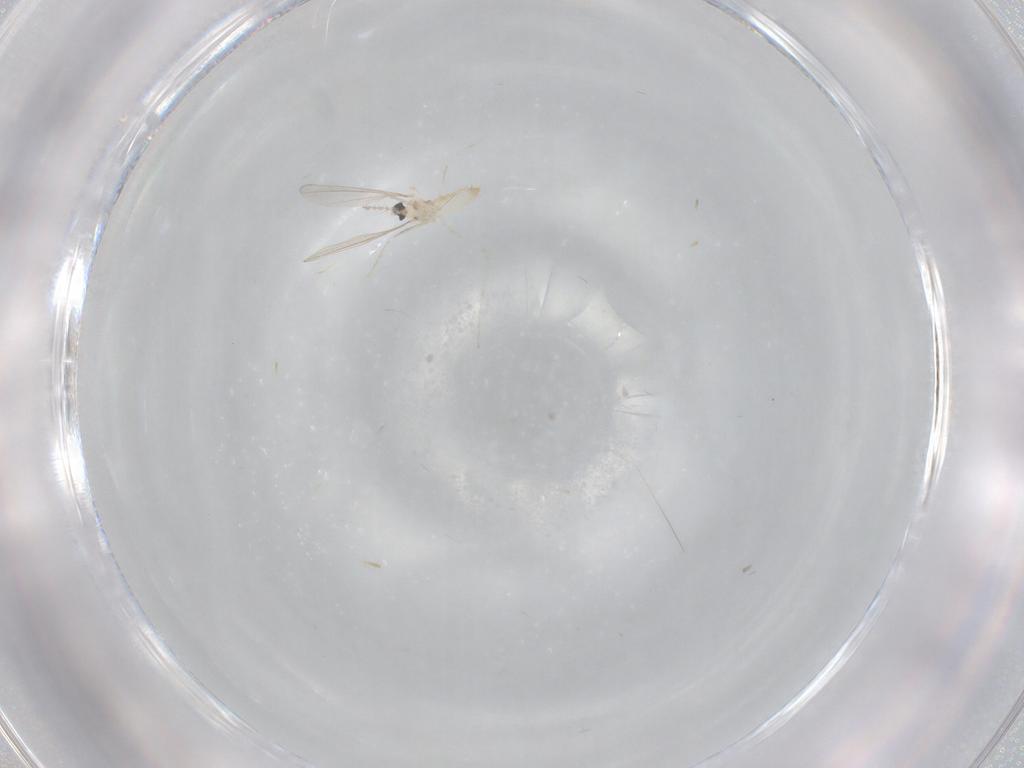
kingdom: Animalia
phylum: Arthropoda
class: Insecta
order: Diptera
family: Cecidomyiidae
